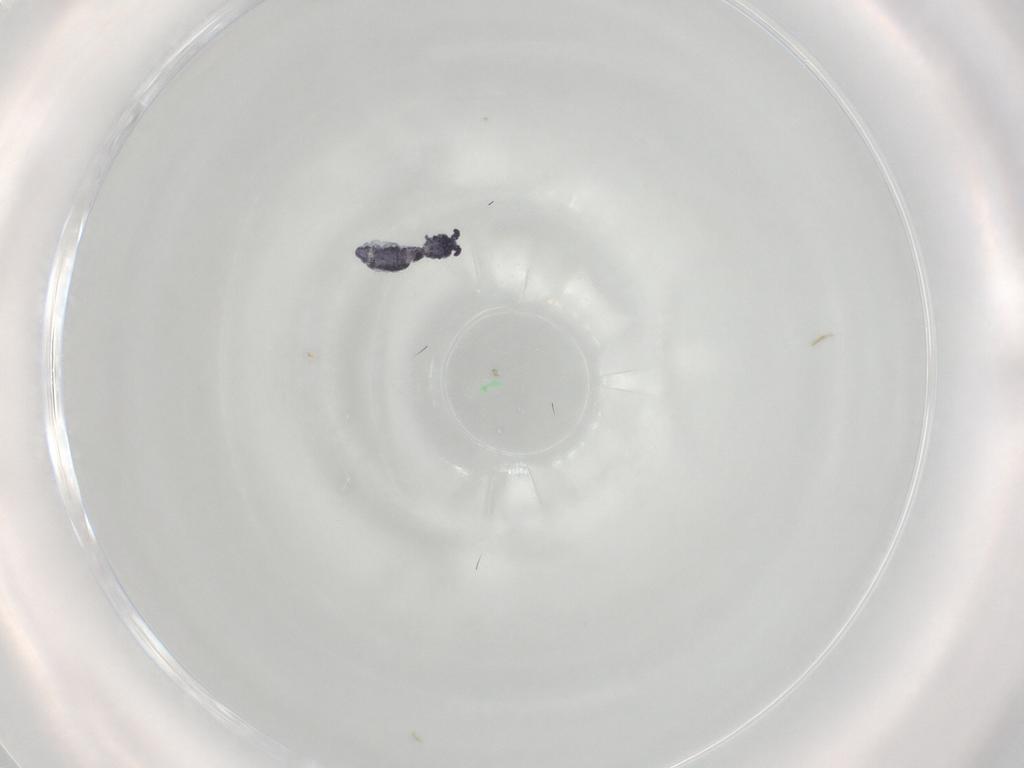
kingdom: Animalia
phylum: Arthropoda
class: Collembola
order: Poduromorpha
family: Neanuridae
